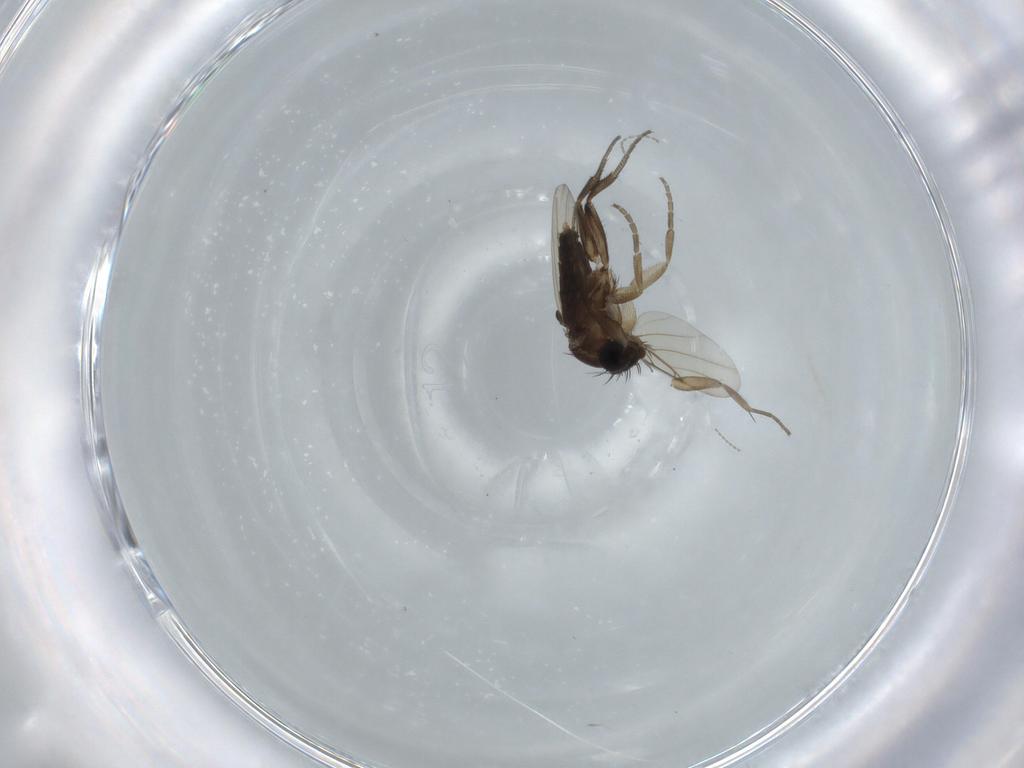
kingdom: Animalia
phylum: Arthropoda
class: Insecta
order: Diptera
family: Phoridae
